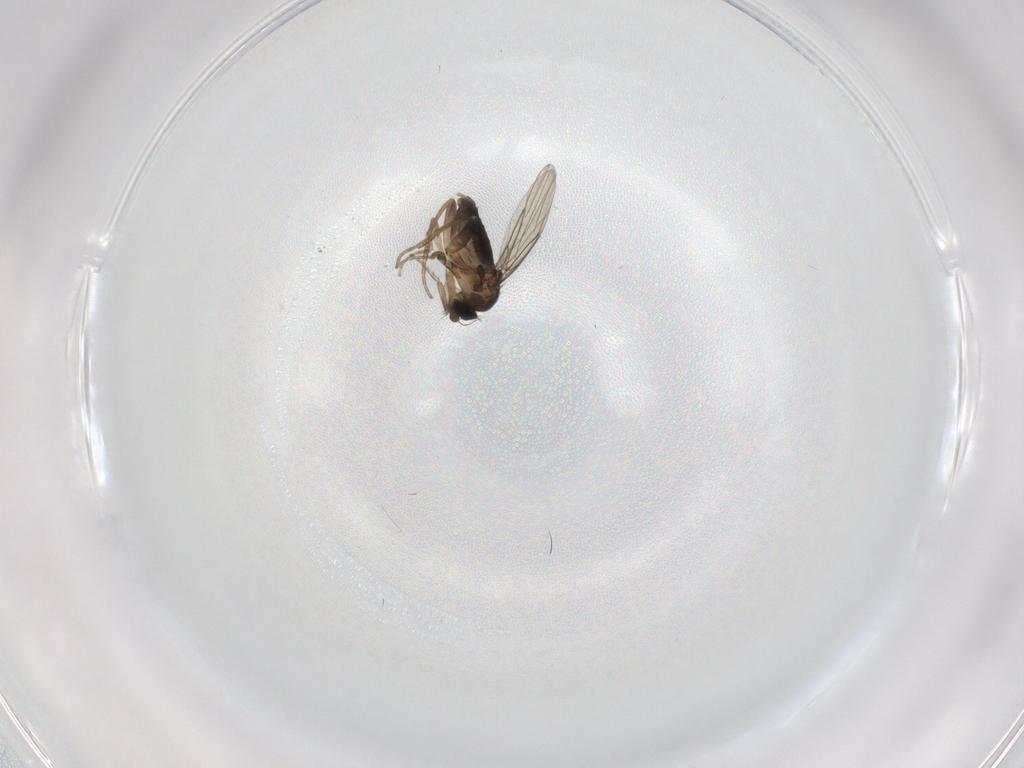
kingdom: Animalia
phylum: Arthropoda
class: Insecta
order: Diptera
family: Phoridae
